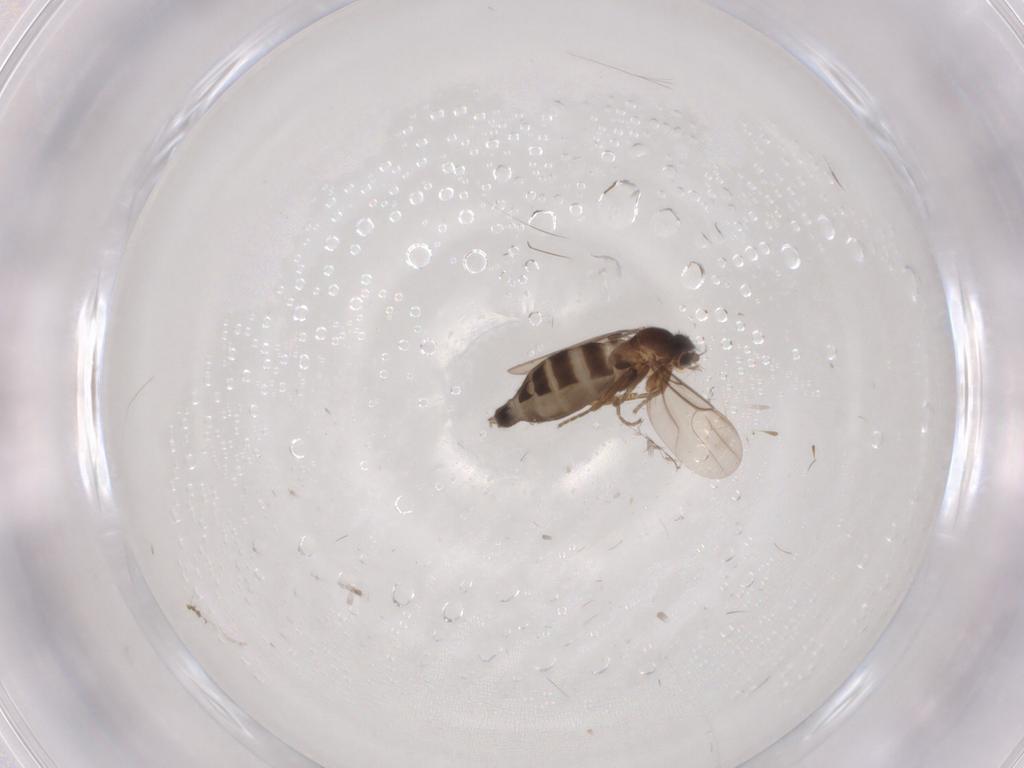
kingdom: Animalia
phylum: Arthropoda
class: Insecta
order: Diptera
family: Phoridae
